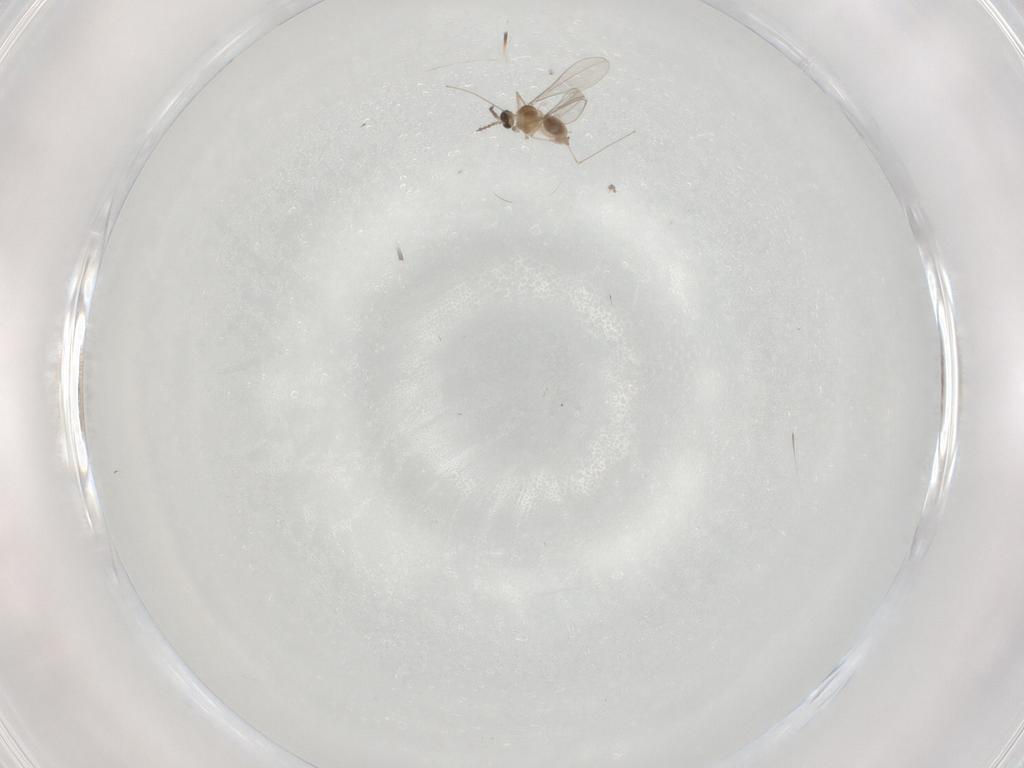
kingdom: Animalia
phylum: Arthropoda
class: Insecta
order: Diptera
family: Cecidomyiidae
